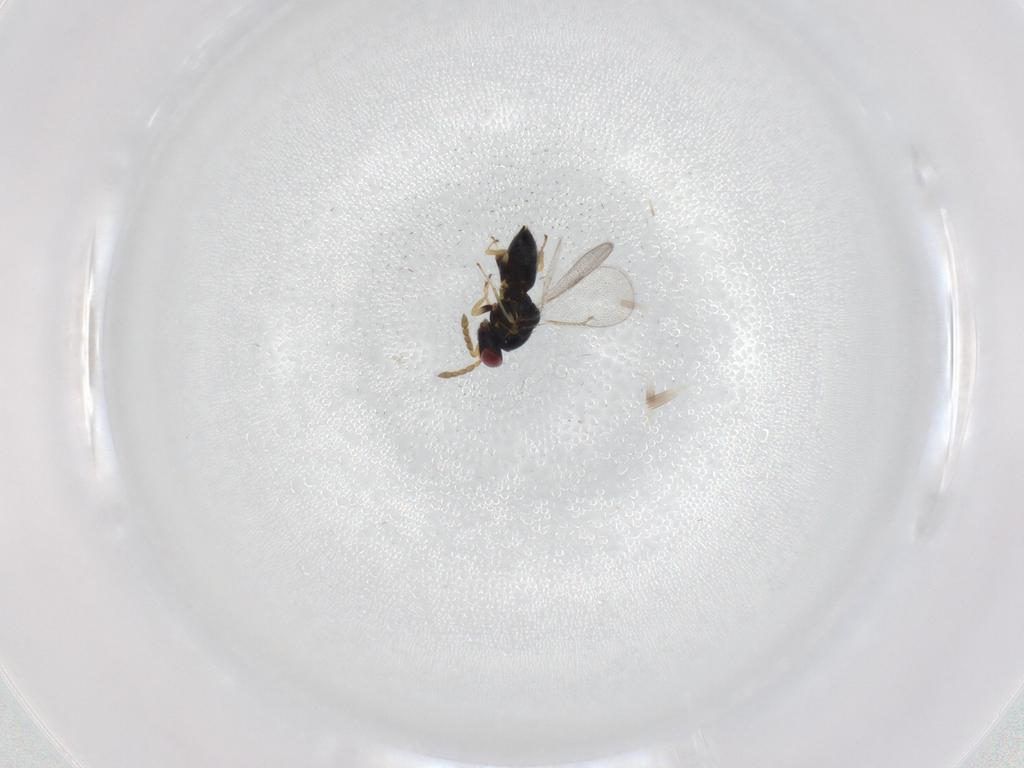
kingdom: Animalia
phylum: Arthropoda
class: Insecta
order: Hymenoptera
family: Eulophidae
